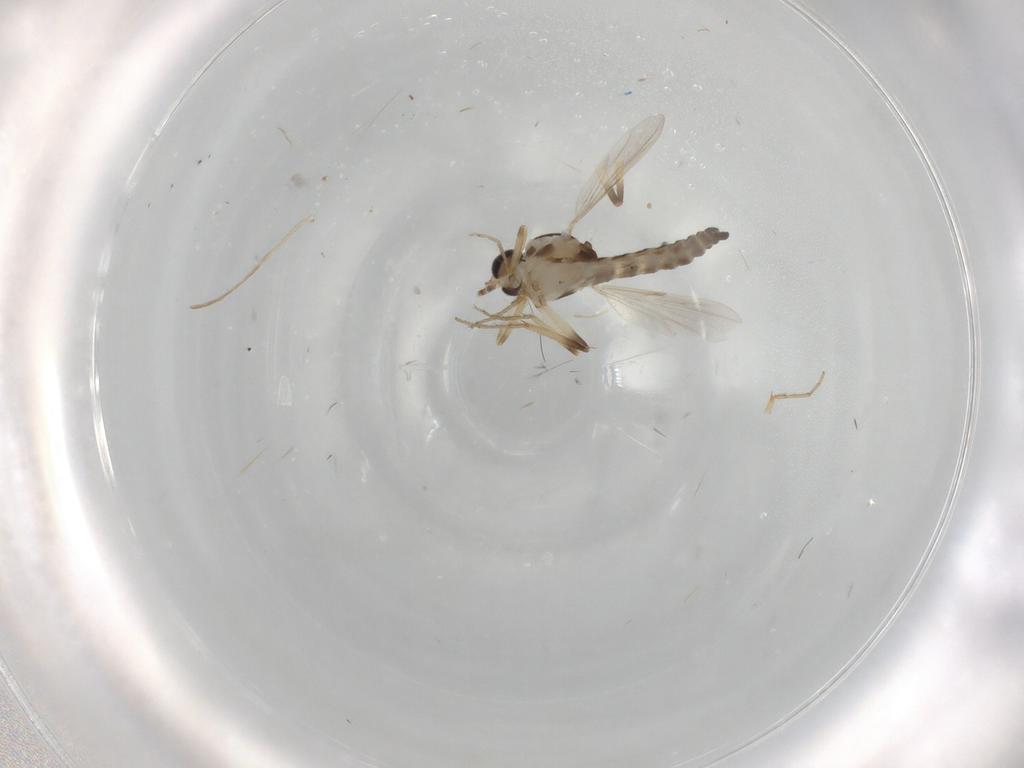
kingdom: Animalia
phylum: Arthropoda
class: Insecta
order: Diptera
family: Ceratopogonidae
